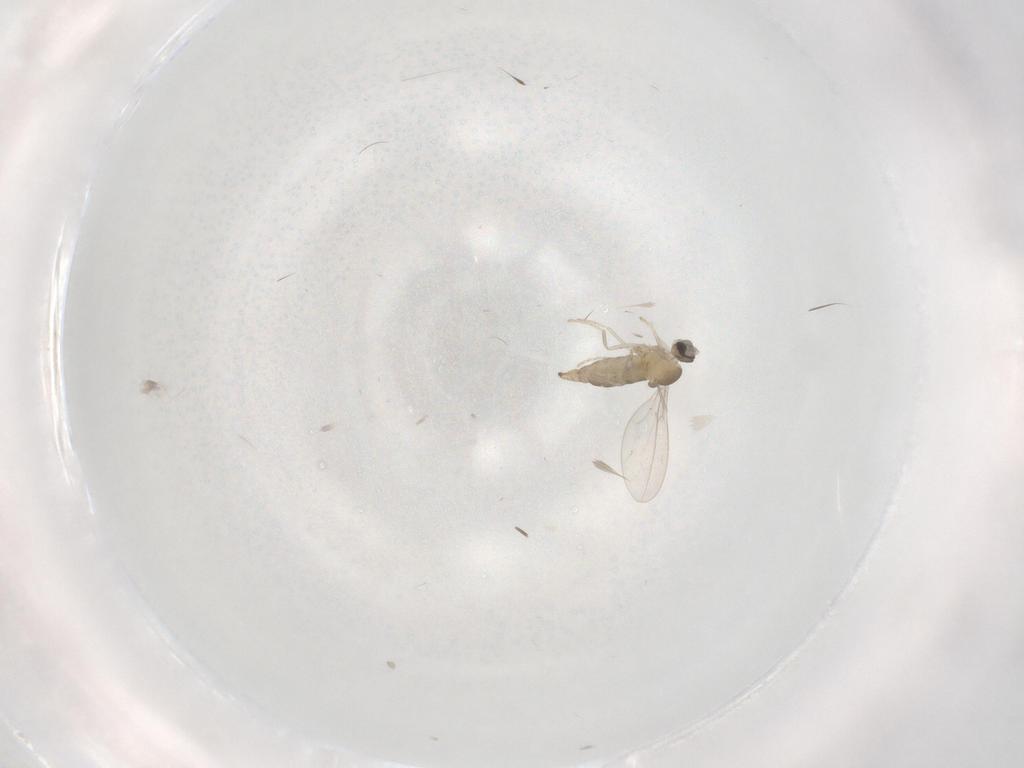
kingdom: Animalia
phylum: Arthropoda
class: Insecta
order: Diptera
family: Cecidomyiidae
